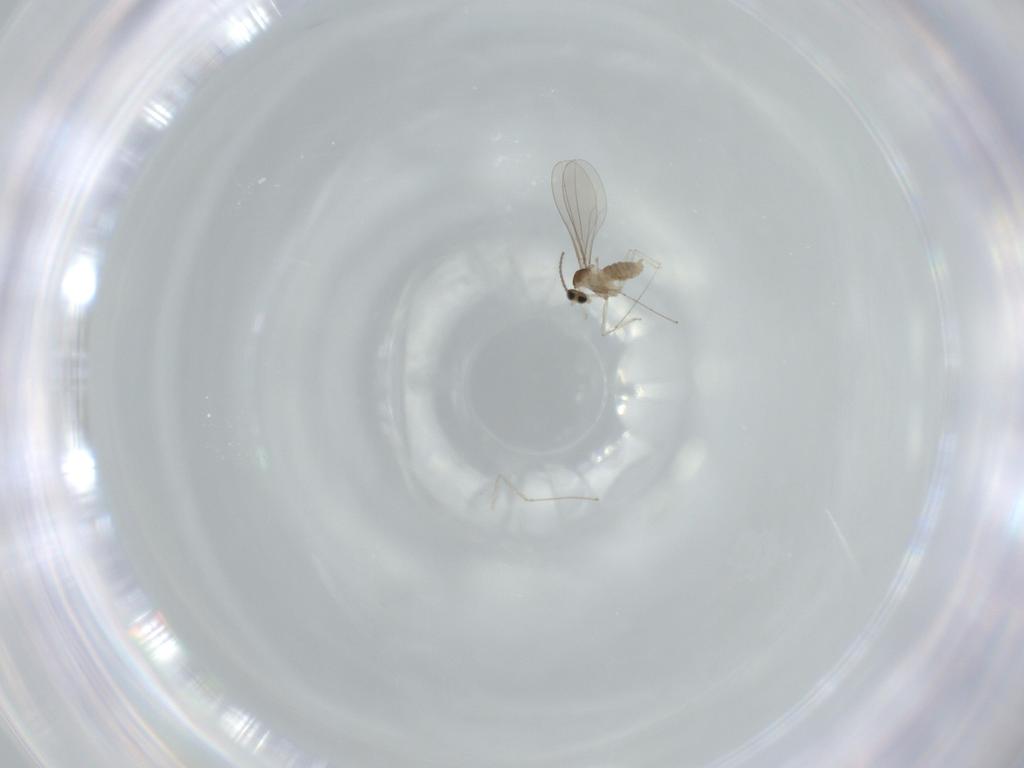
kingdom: Animalia
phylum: Arthropoda
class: Insecta
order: Diptera
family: Cecidomyiidae
